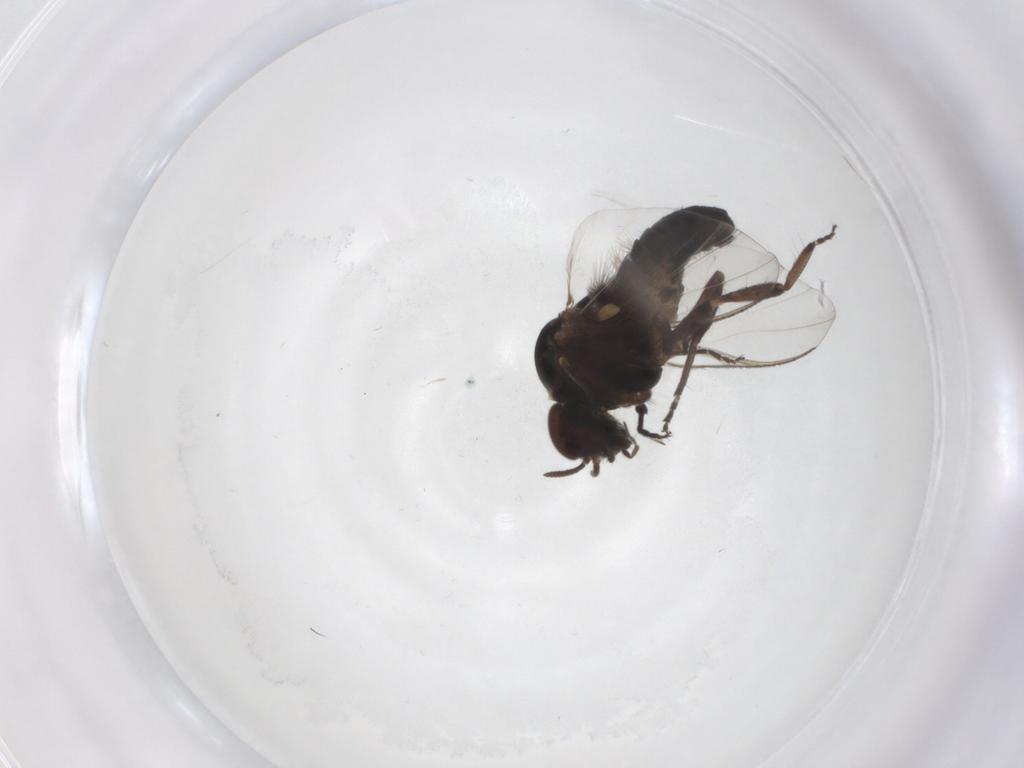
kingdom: Animalia
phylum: Arthropoda
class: Insecta
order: Diptera
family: Chironomidae
